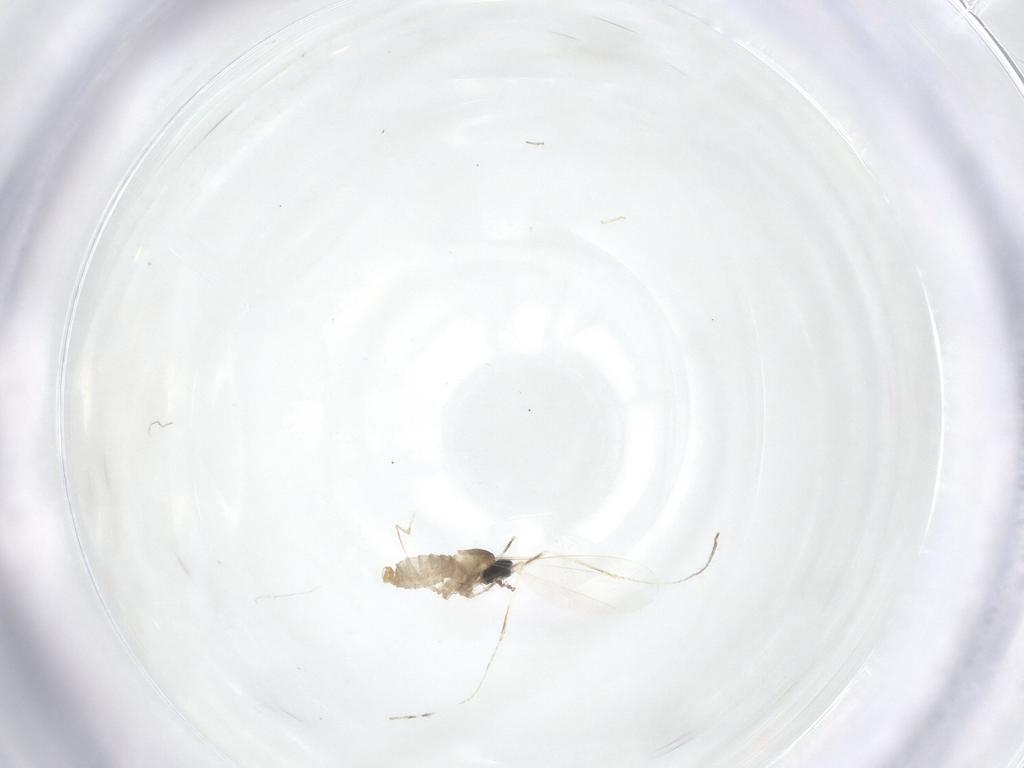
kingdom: Animalia
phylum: Arthropoda
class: Insecta
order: Diptera
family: Cecidomyiidae
